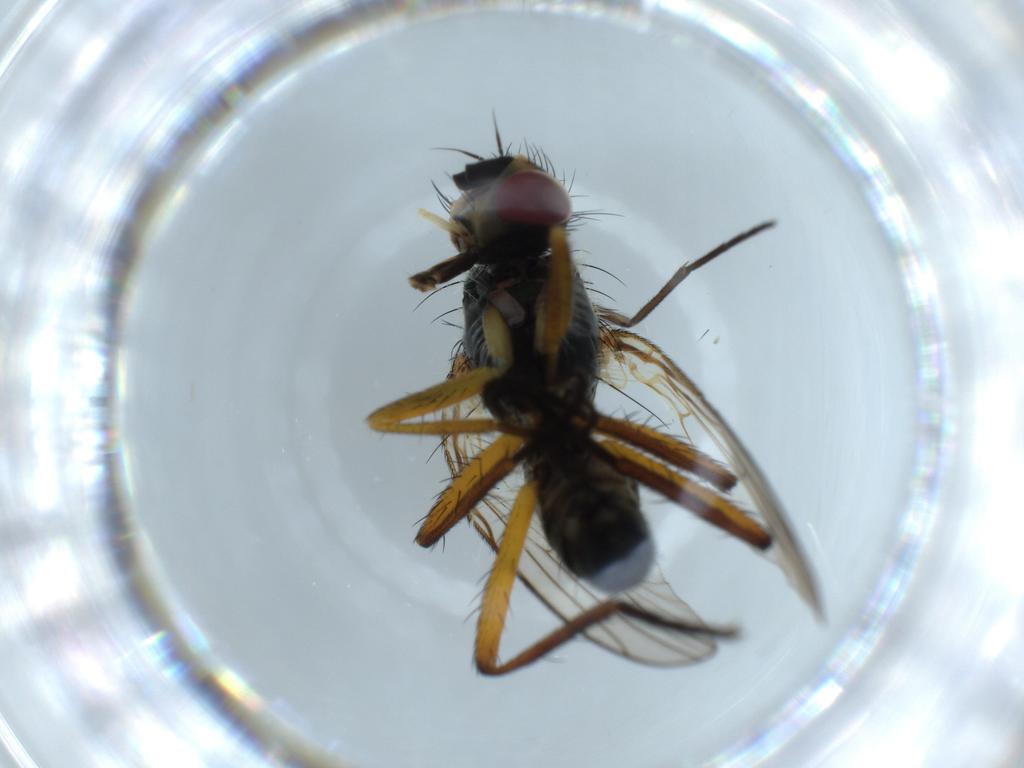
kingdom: Animalia
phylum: Arthropoda
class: Insecta
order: Diptera
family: Scathophagidae
